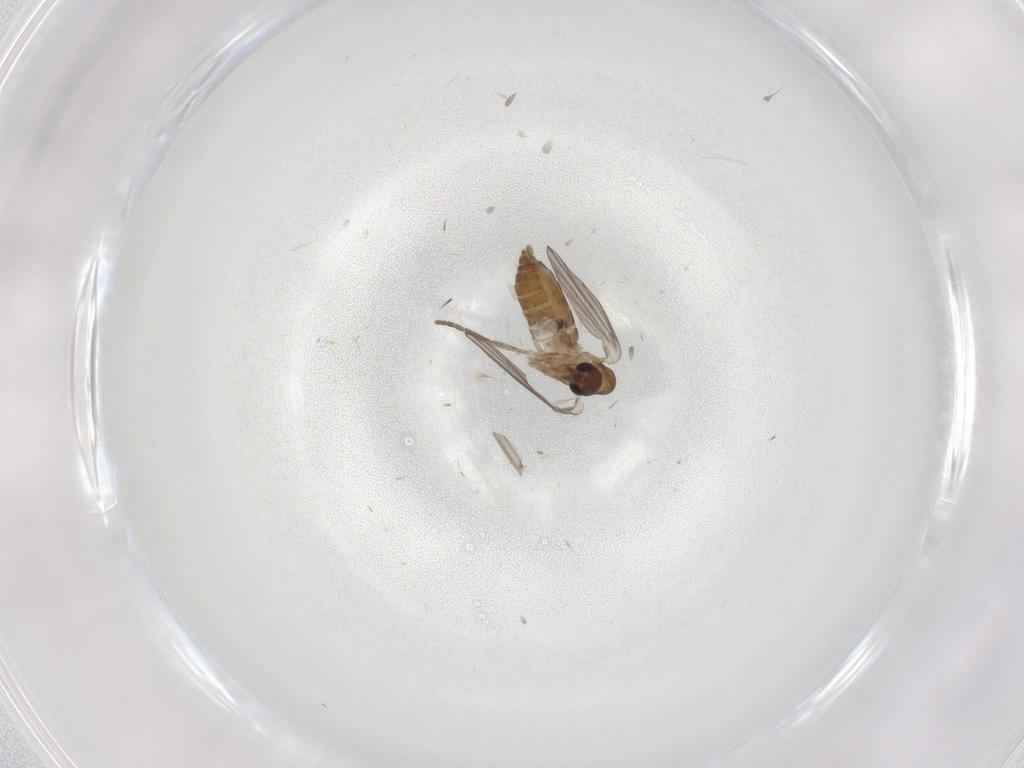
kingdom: Animalia
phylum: Arthropoda
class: Insecta
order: Diptera
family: Sciaridae
